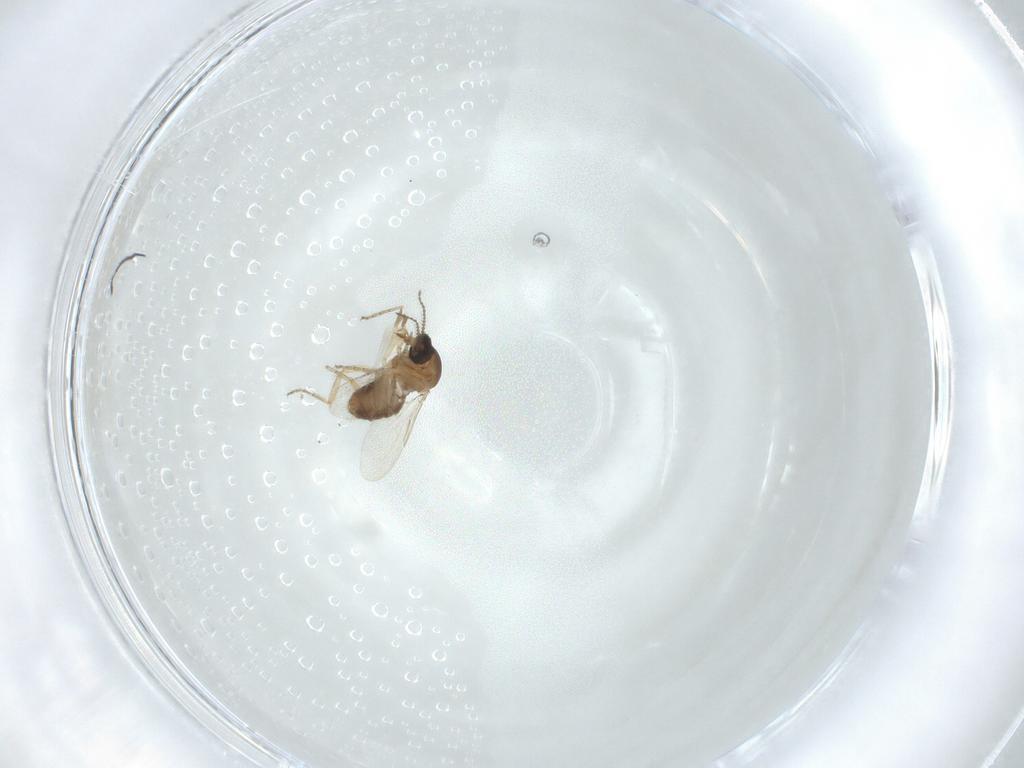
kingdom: Animalia
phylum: Arthropoda
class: Insecta
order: Diptera
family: Ceratopogonidae
